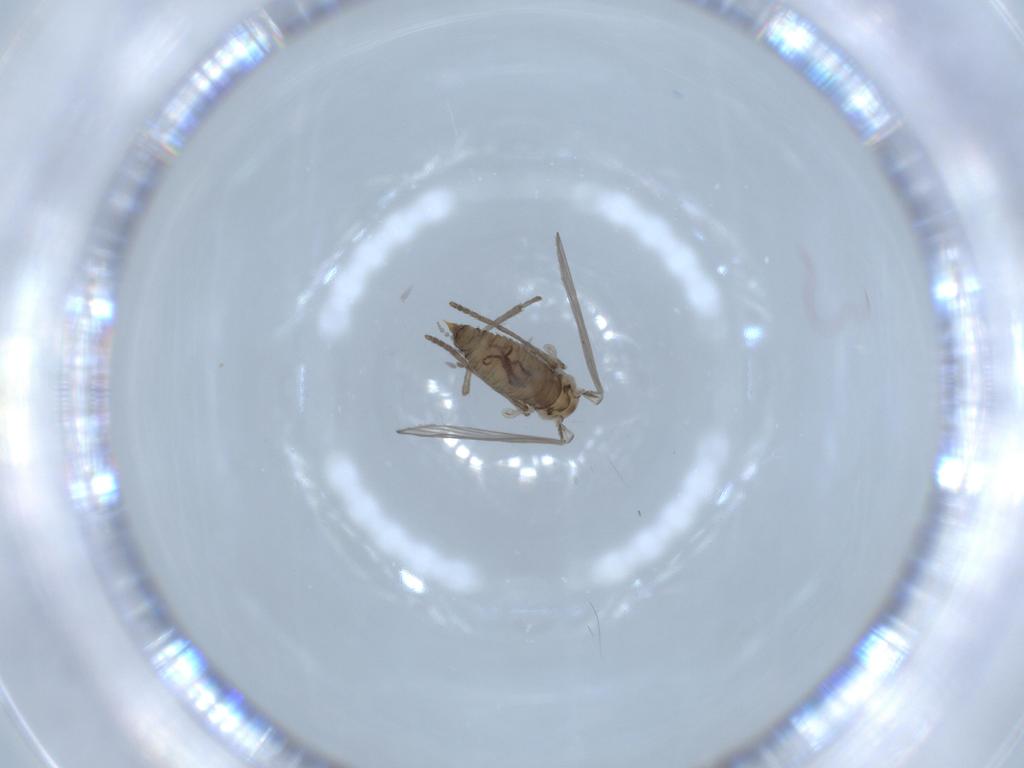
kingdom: Animalia
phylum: Arthropoda
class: Insecta
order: Diptera
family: Psychodidae
